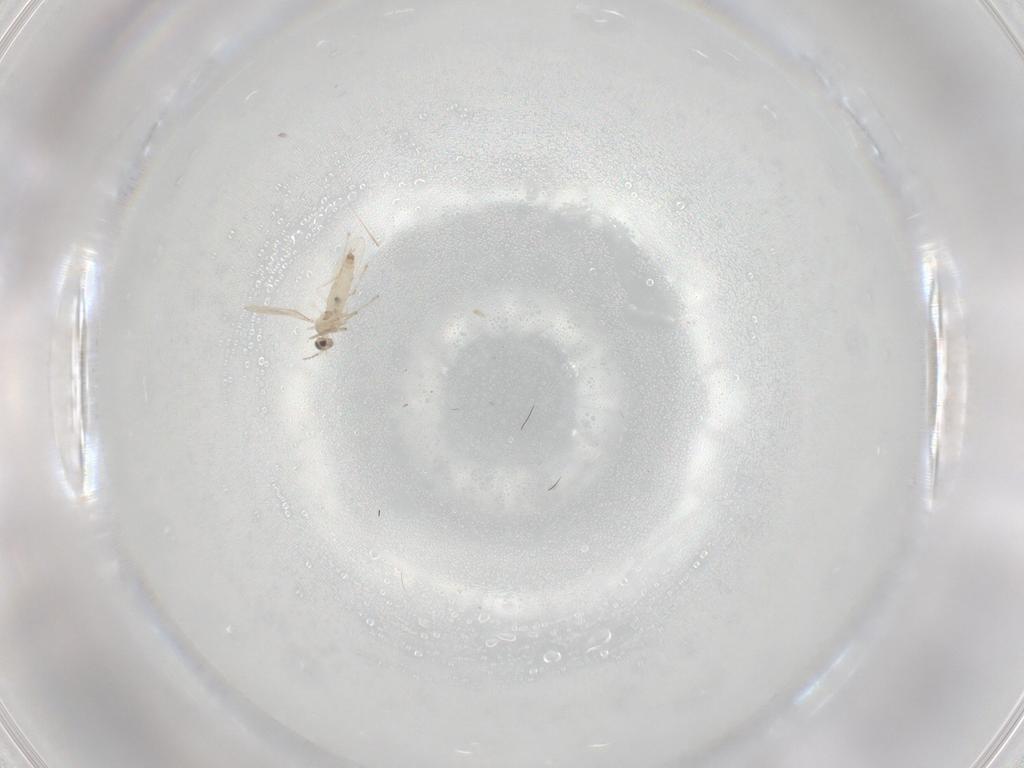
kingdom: Animalia
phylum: Arthropoda
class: Insecta
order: Diptera
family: Cecidomyiidae
